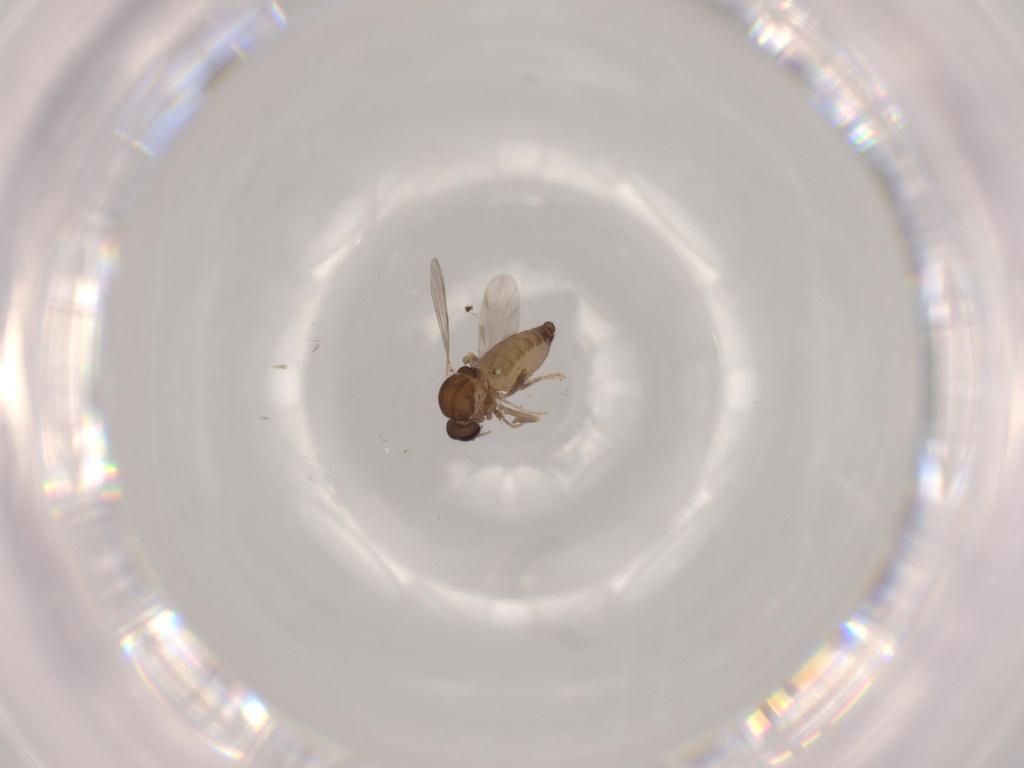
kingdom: Animalia
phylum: Arthropoda
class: Insecta
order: Diptera
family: Ceratopogonidae
